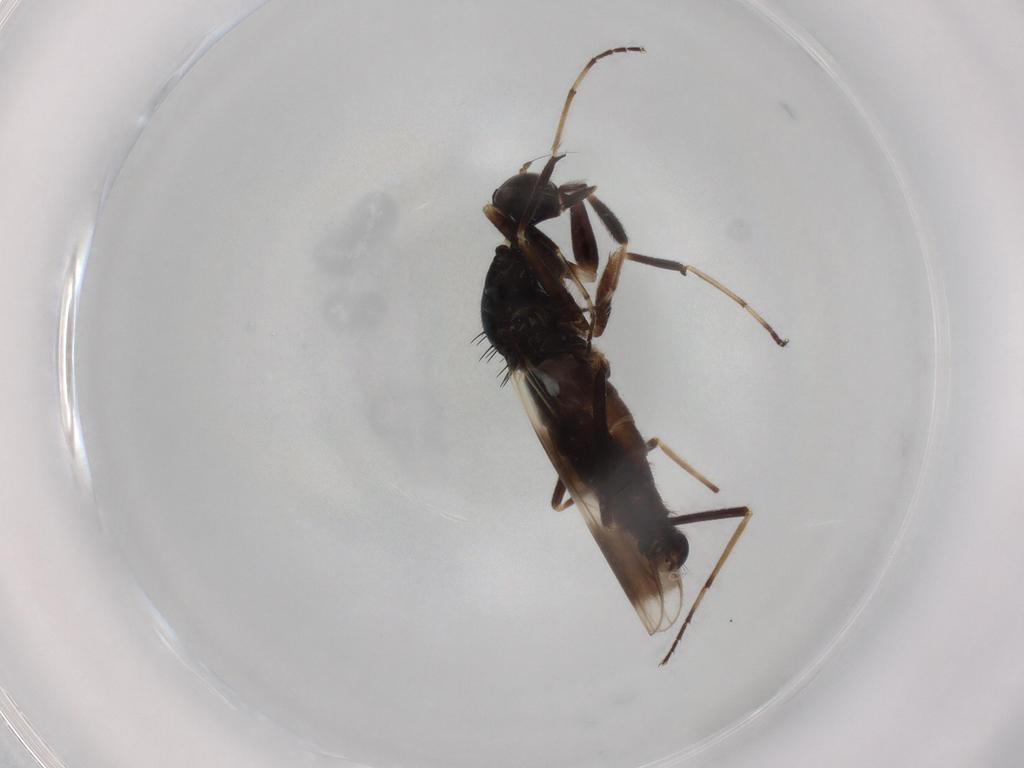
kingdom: Animalia
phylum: Arthropoda
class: Insecta
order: Diptera
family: Hybotidae
